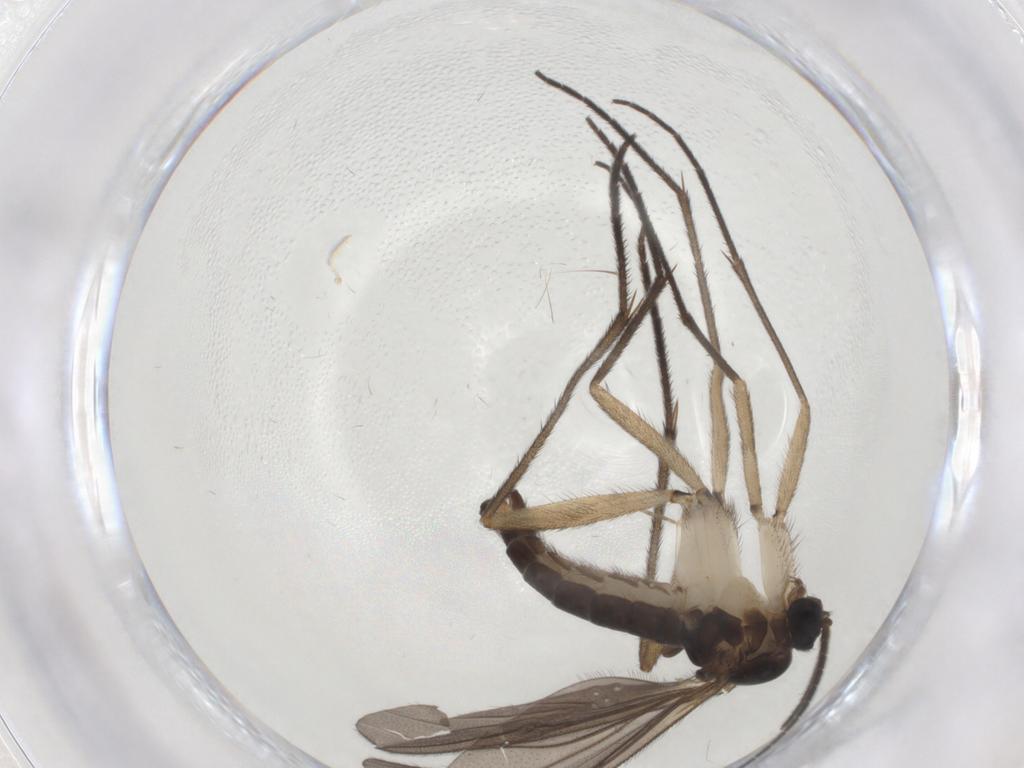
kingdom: Animalia
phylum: Arthropoda
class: Insecta
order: Diptera
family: Sciaridae
